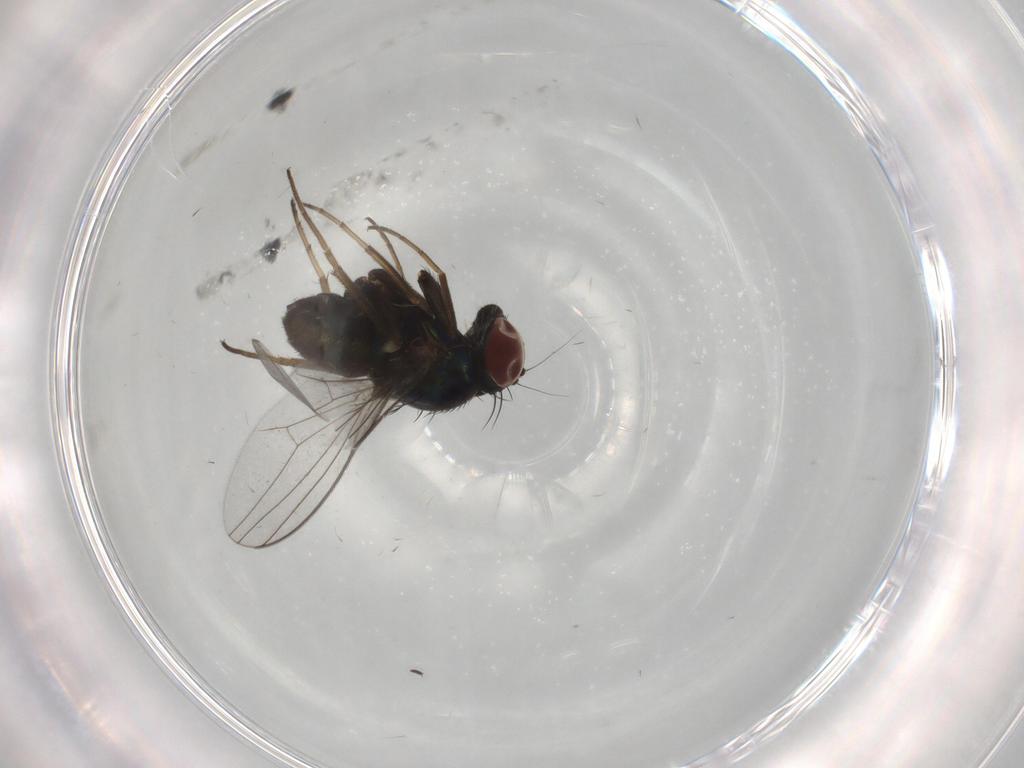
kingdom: Animalia
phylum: Arthropoda
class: Insecta
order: Diptera
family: Dolichopodidae
